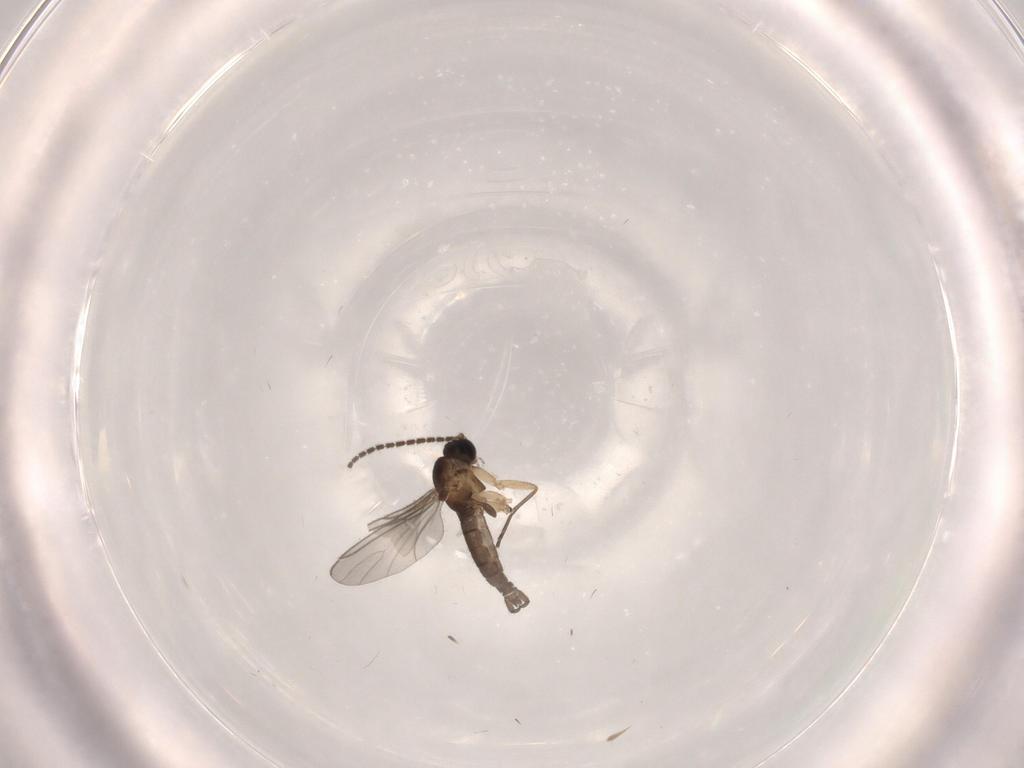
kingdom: Animalia
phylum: Arthropoda
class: Insecta
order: Diptera
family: Sciaridae
